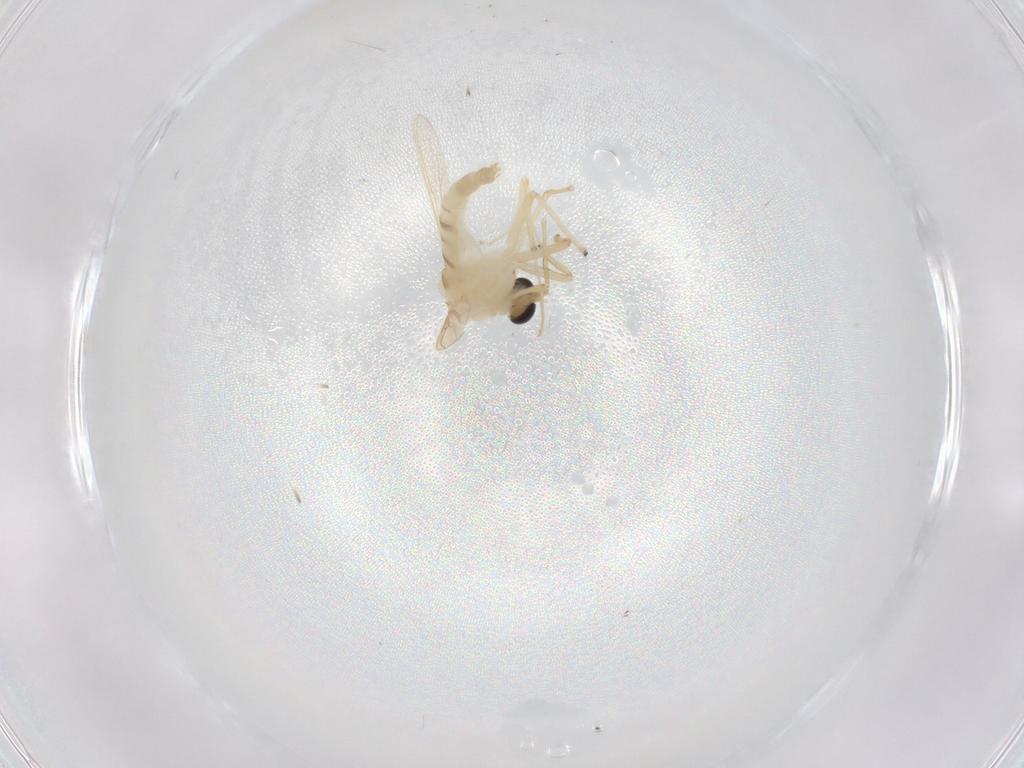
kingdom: Animalia
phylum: Arthropoda
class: Insecta
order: Diptera
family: Chironomidae
